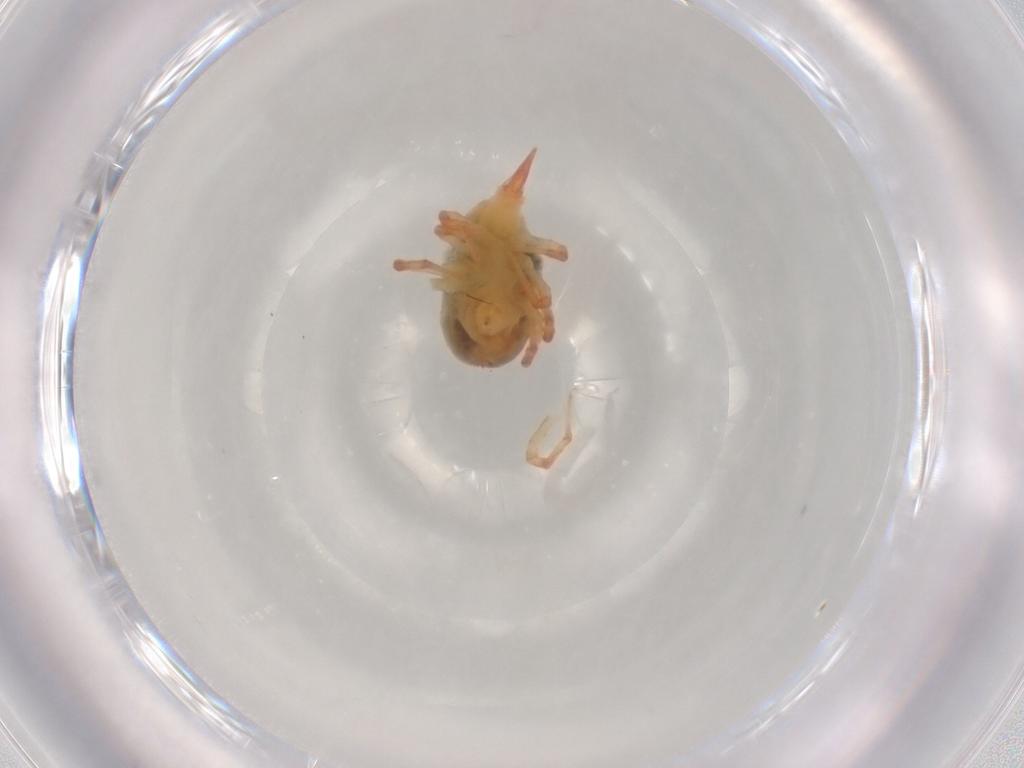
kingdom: Animalia
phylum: Arthropoda
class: Arachnida
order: Trombidiformes
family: Bdellidae
